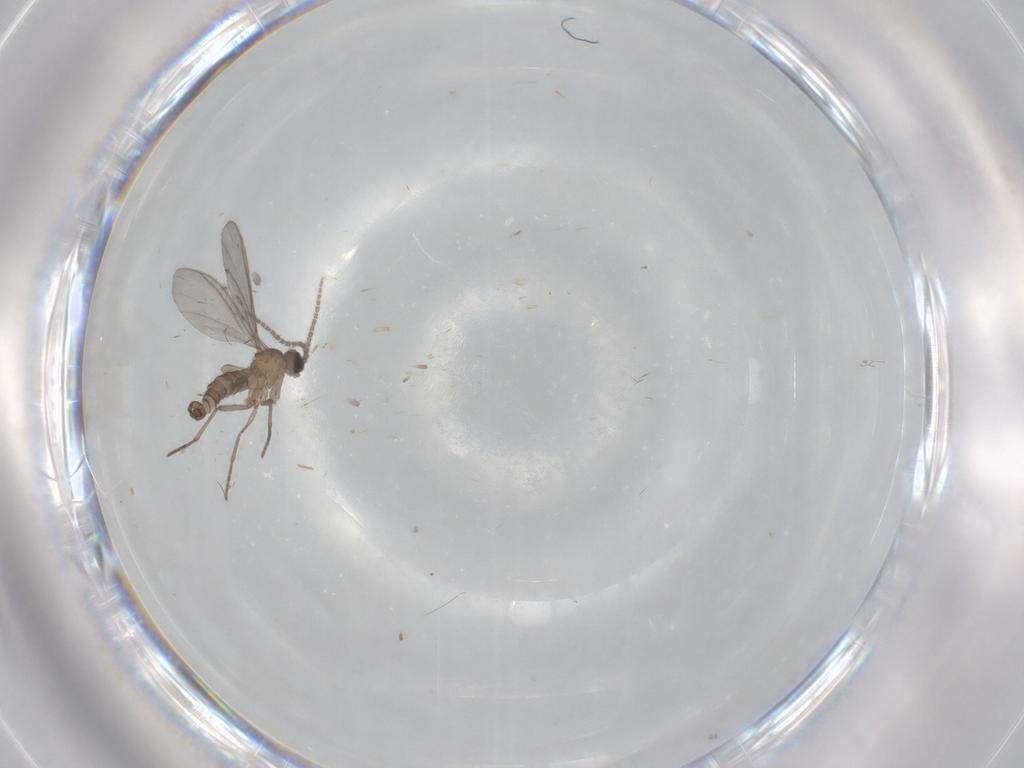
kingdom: Animalia
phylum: Arthropoda
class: Insecta
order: Diptera
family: Sciaridae
